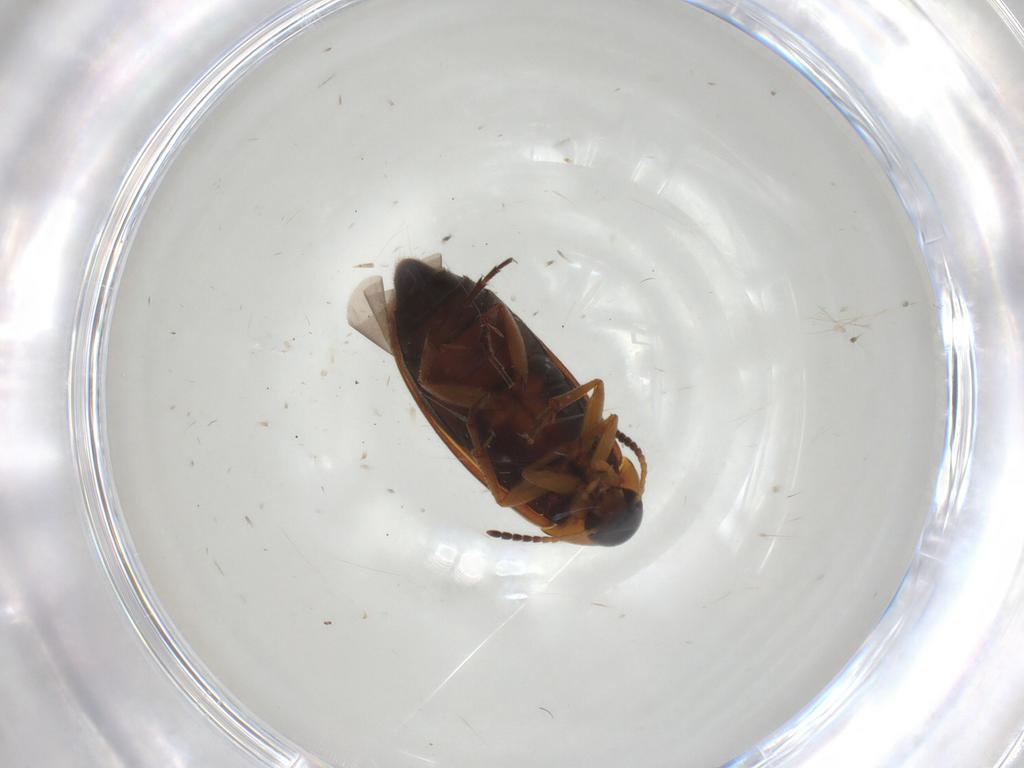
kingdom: Animalia
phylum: Arthropoda
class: Insecta
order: Coleoptera
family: Scraptiidae
